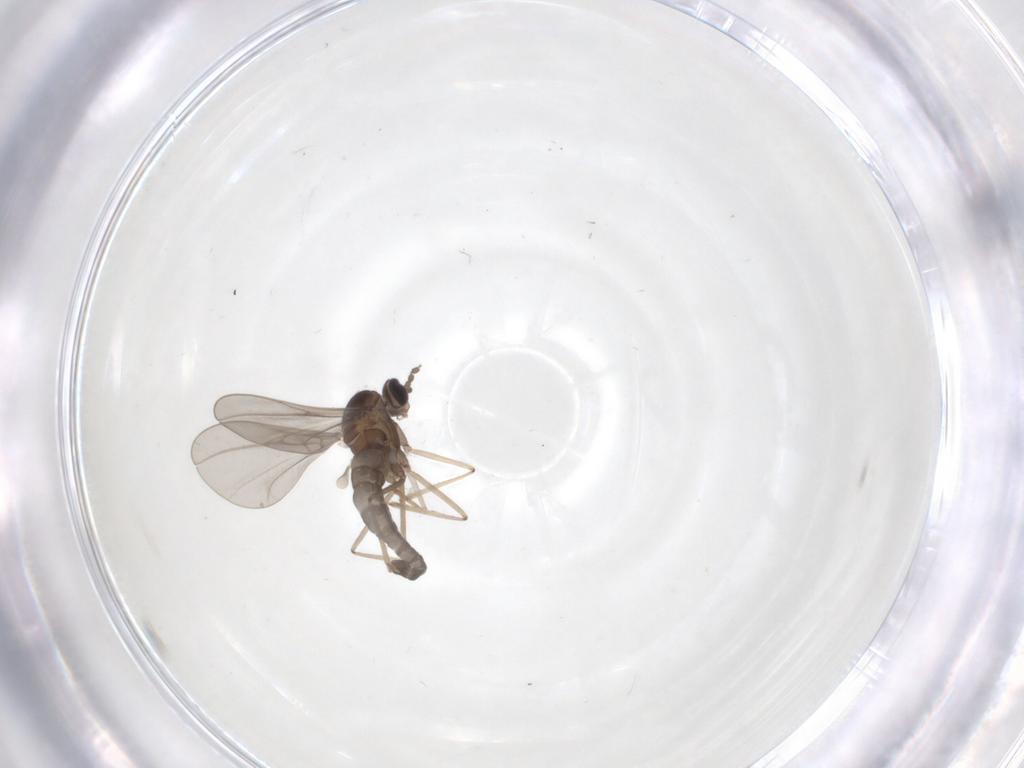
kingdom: Animalia
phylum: Arthropoda
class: Insecta
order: Diptera
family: Cecidomyiidae
